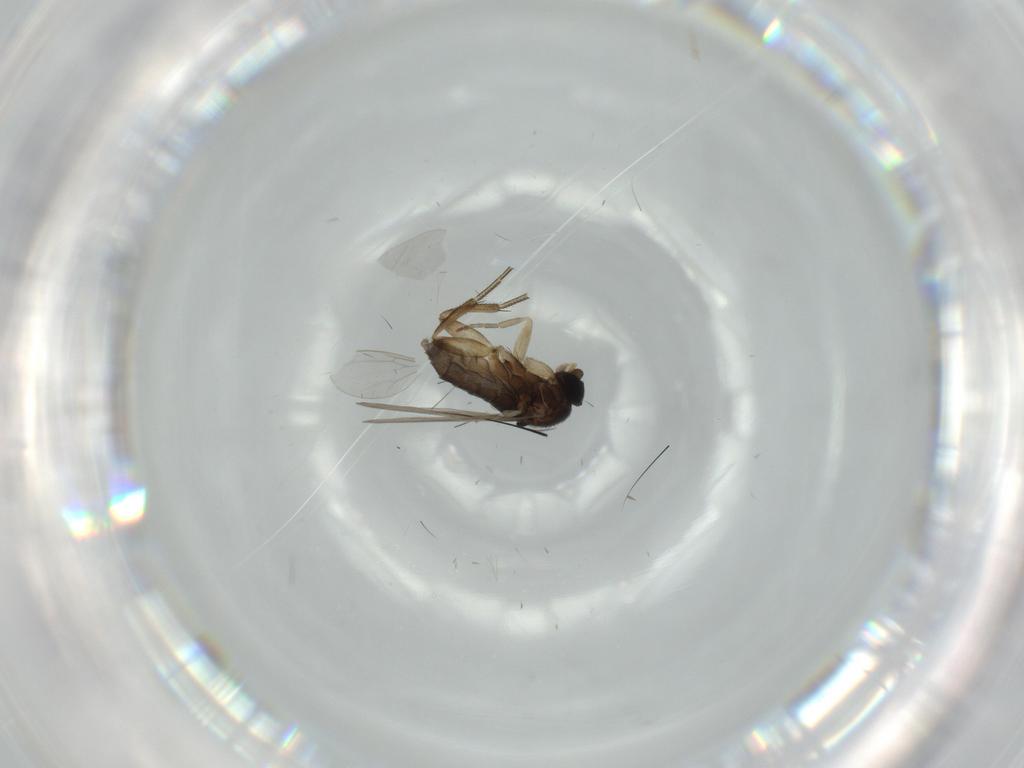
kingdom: Animalia
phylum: Arthropoda
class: Insecta
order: Diptera
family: Phoridae
